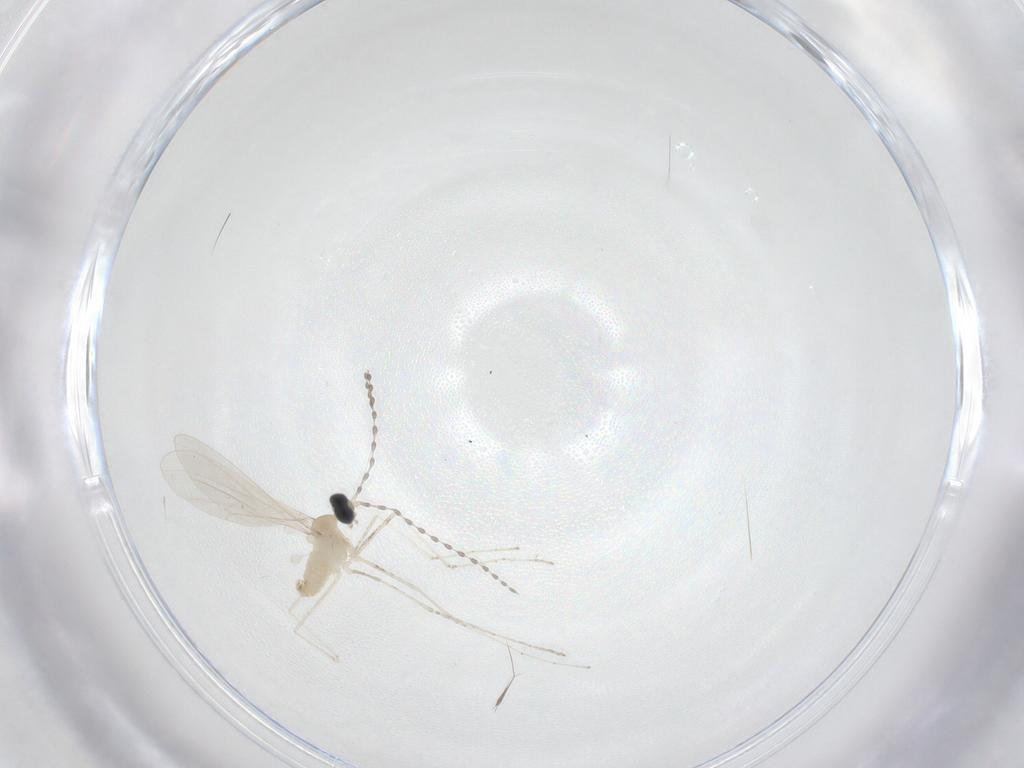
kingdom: Animalia
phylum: Arthropoda
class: Insecta
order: Diptera
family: Cecidomyiidae
